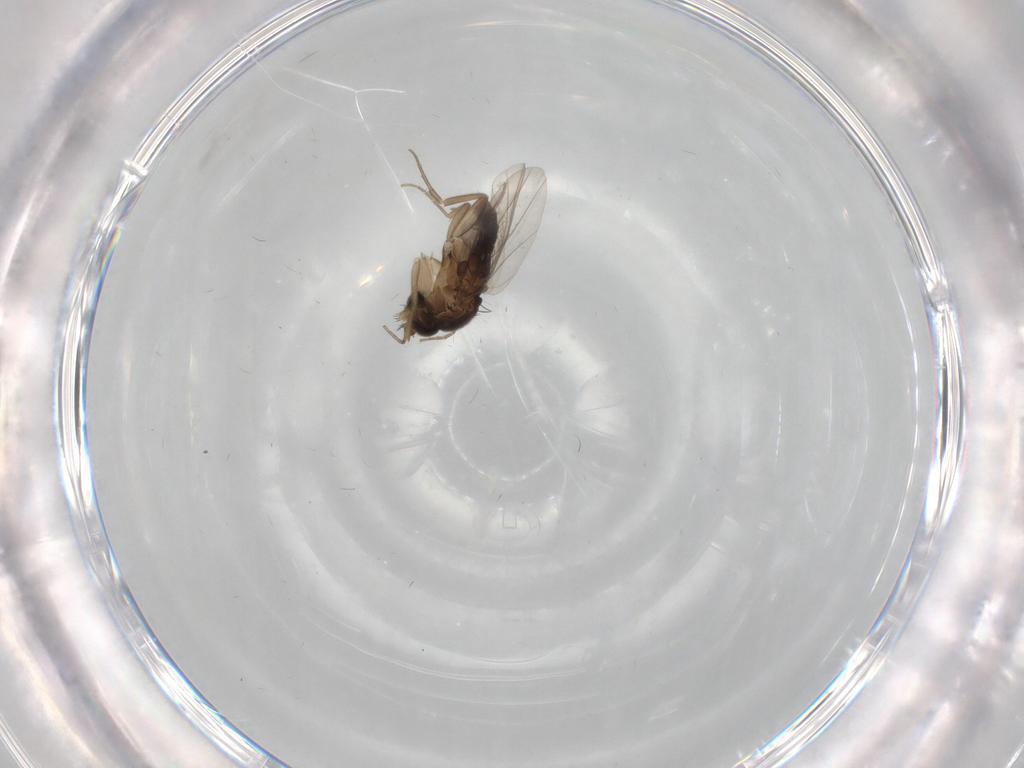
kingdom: Animalia
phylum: Arthropoda
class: Insecta
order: Diptera
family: Phoridae
